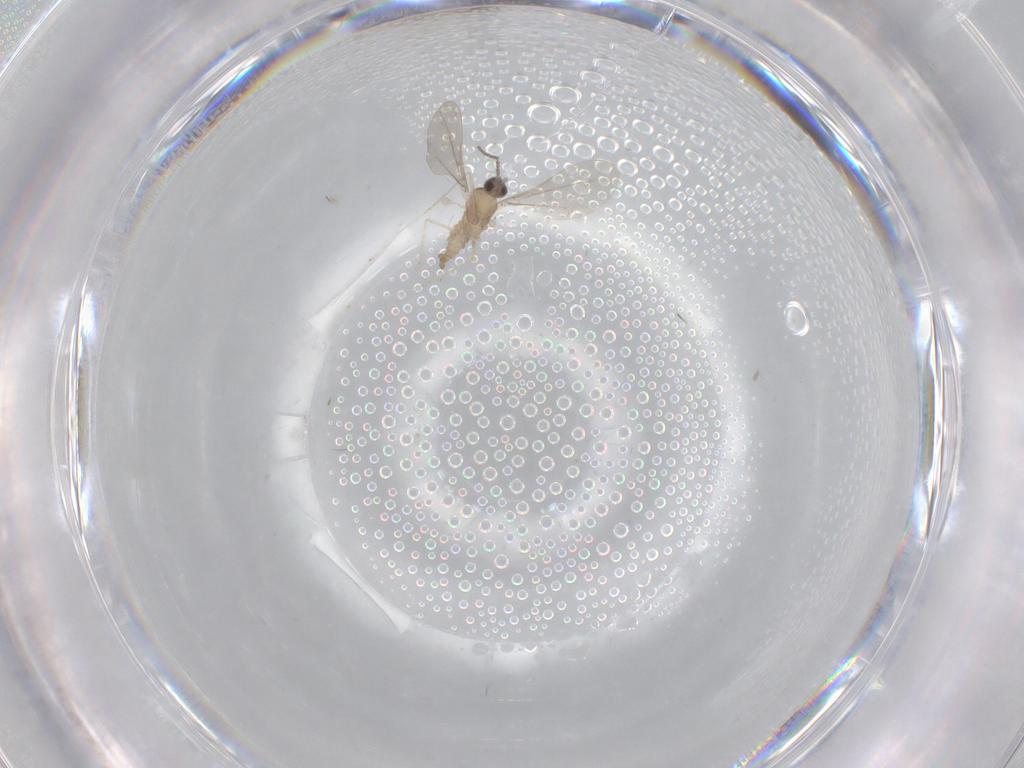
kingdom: Animalia
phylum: Arthropoda
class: Insecta
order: Diptera
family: Cecidomyiidae
